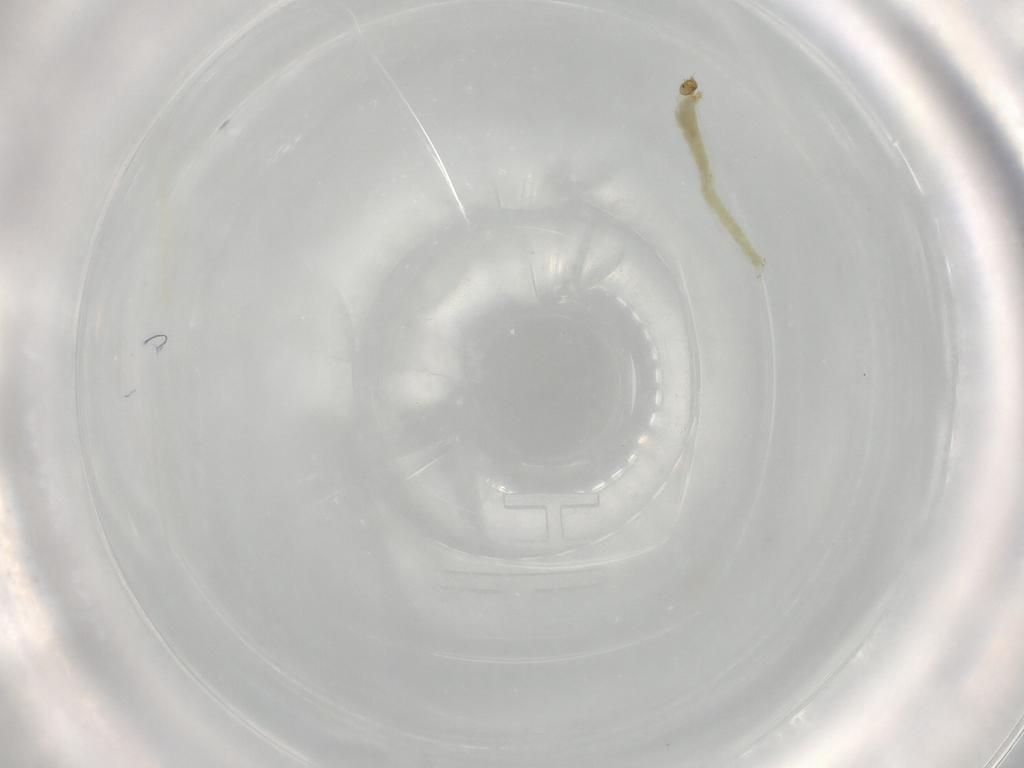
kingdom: Animalia
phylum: Arthropoda
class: Insecta
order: Diptera
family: Chironomidae
